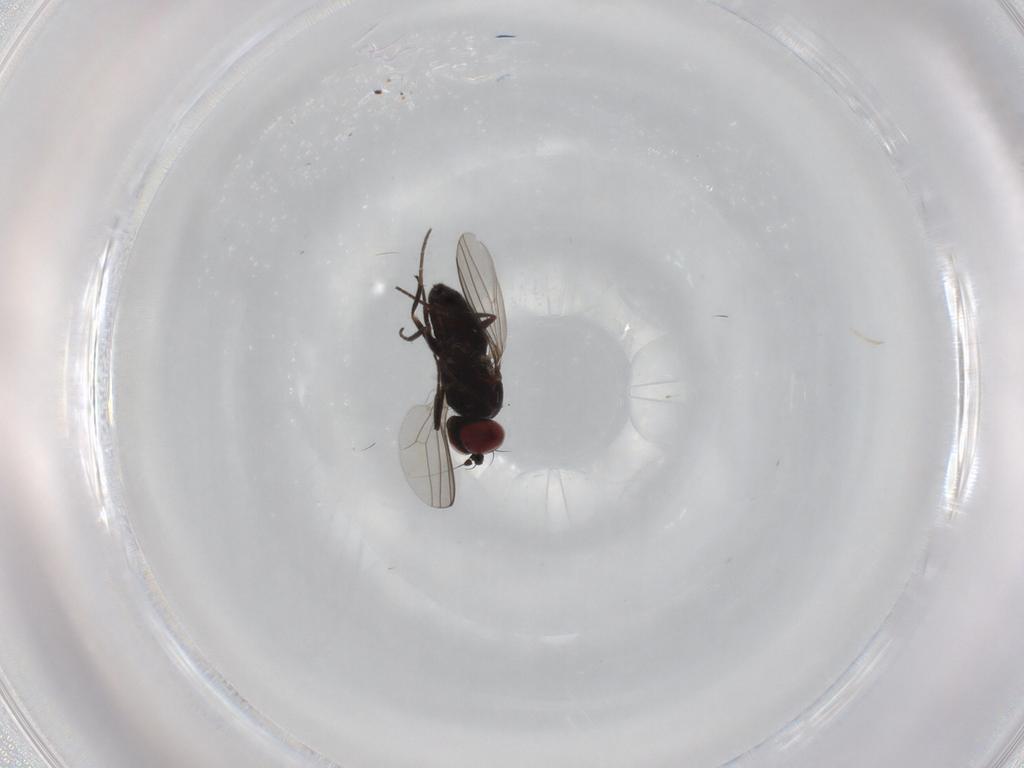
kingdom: Animalia
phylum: Arthropoda
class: Insecta
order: Diptera
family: Dolichopodidae
